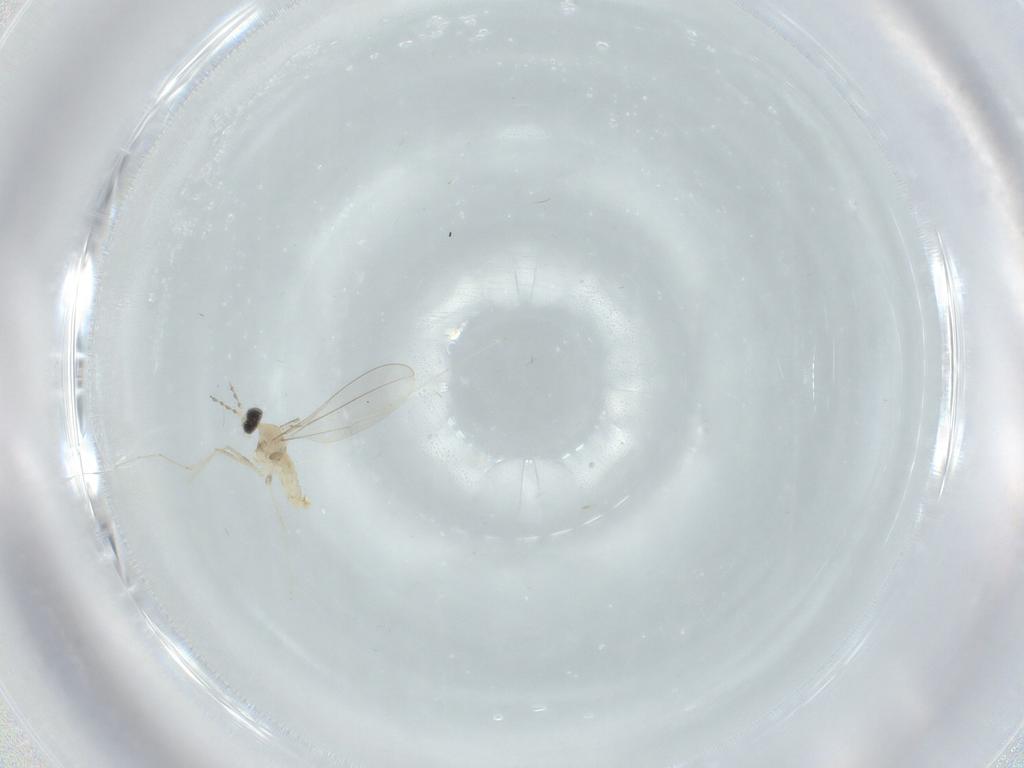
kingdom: Animalia
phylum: Arthropoda
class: Insecta
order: Diptera
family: Cecidomyiidae
